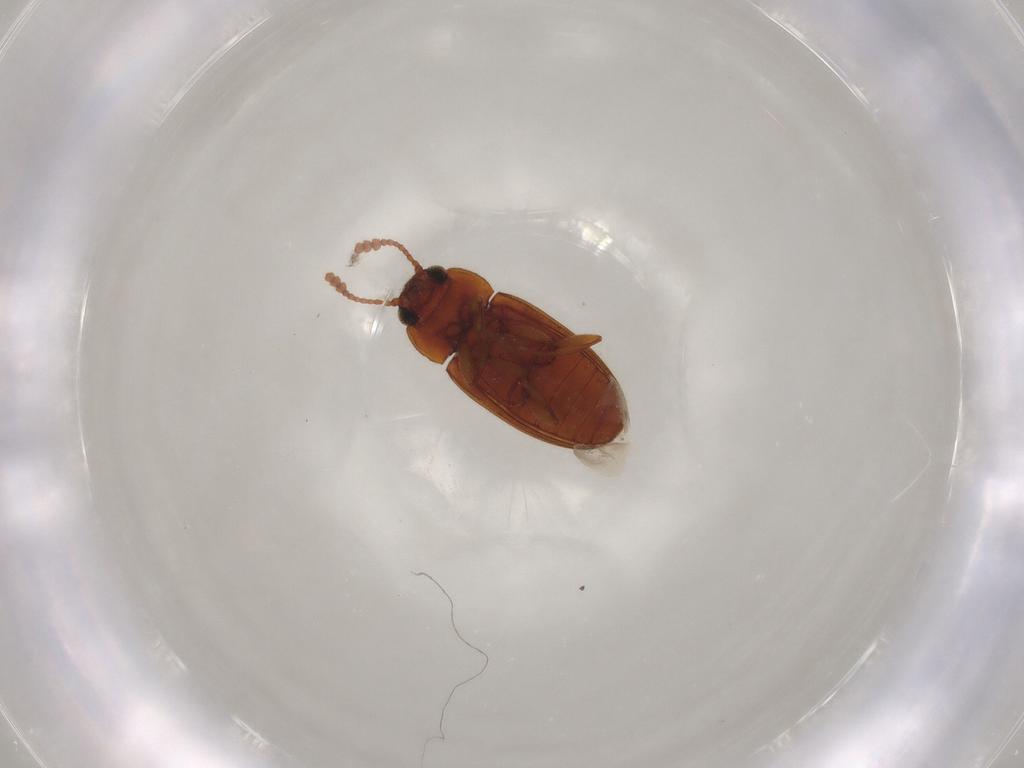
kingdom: Animalia
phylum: Arthropoda
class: Insecta
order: Coleoptera
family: Erotylidae
